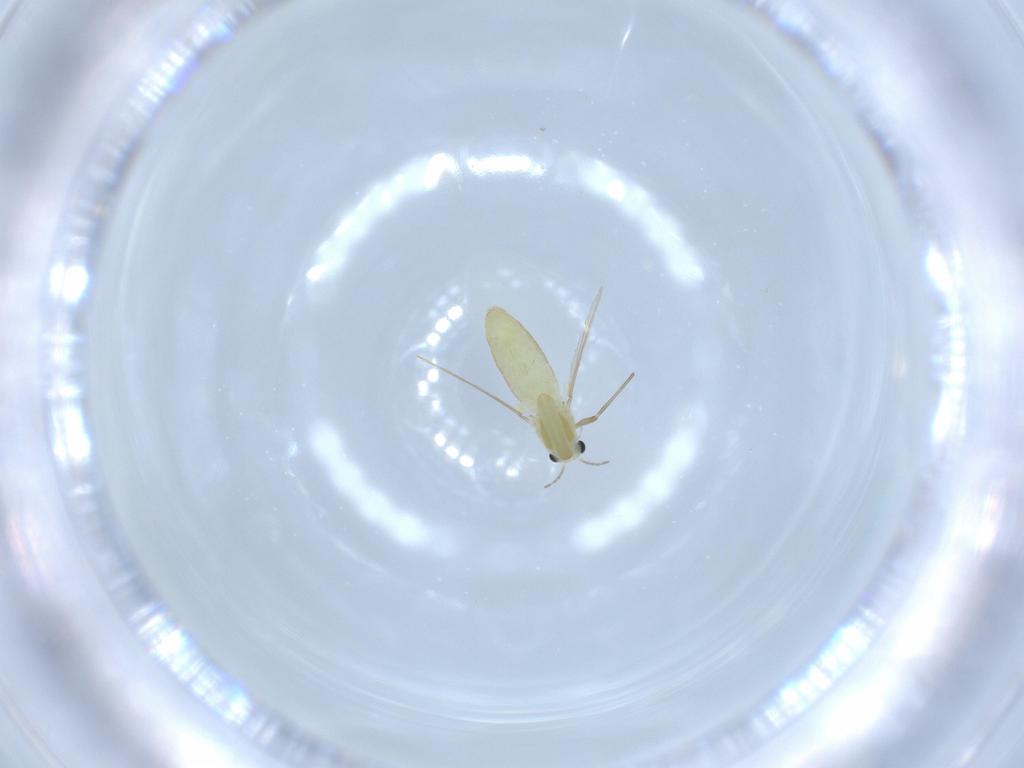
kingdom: Animalia
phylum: Arthropoda
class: Insecta
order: Diptera
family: Chironomidae
